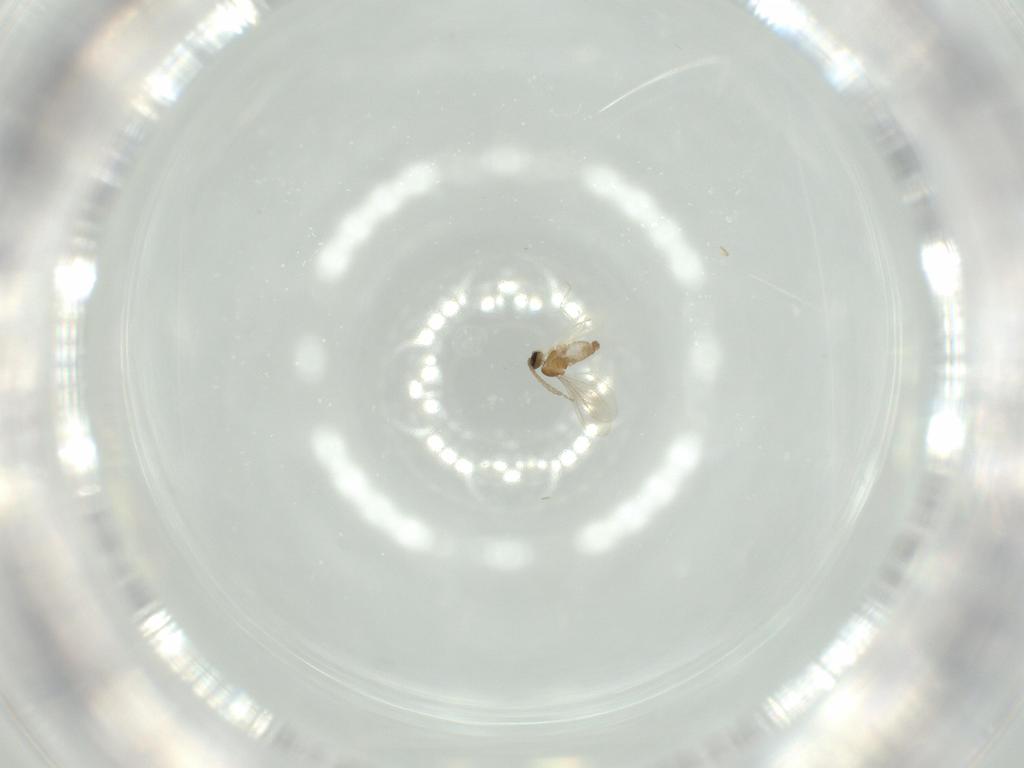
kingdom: Animalia
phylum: Arthropoda
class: Insecta
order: Diptera
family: Cecidomyiidae
